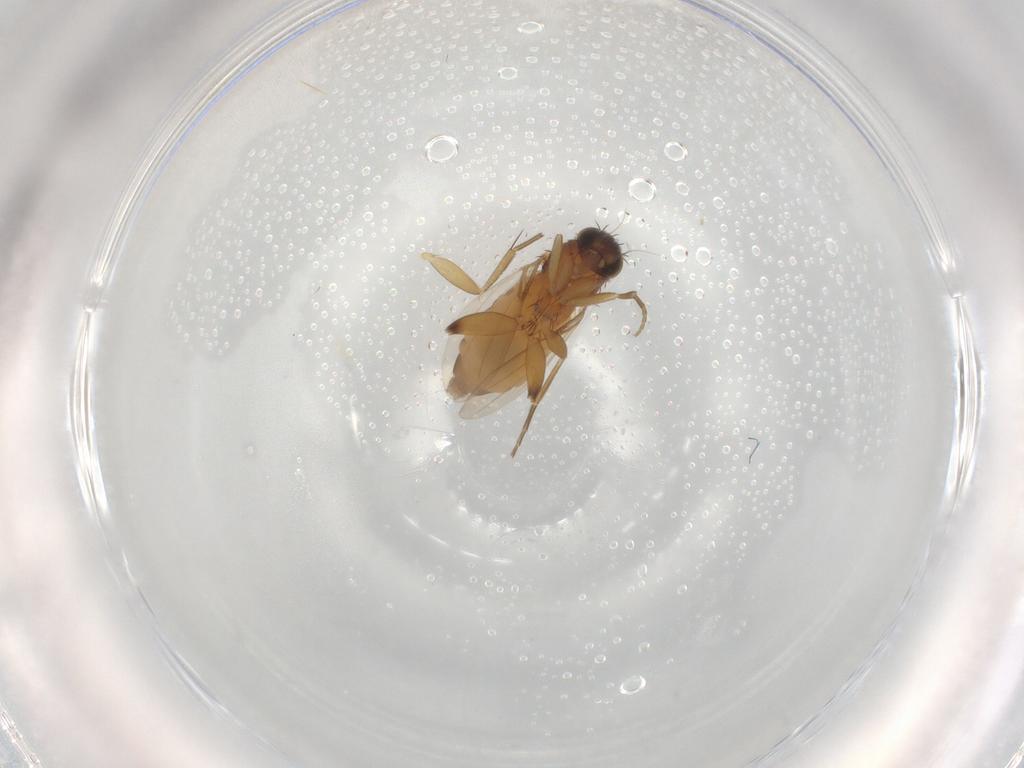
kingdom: Animalia
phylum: Arthropoda
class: Insecta
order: Diptera
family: Phoridae
